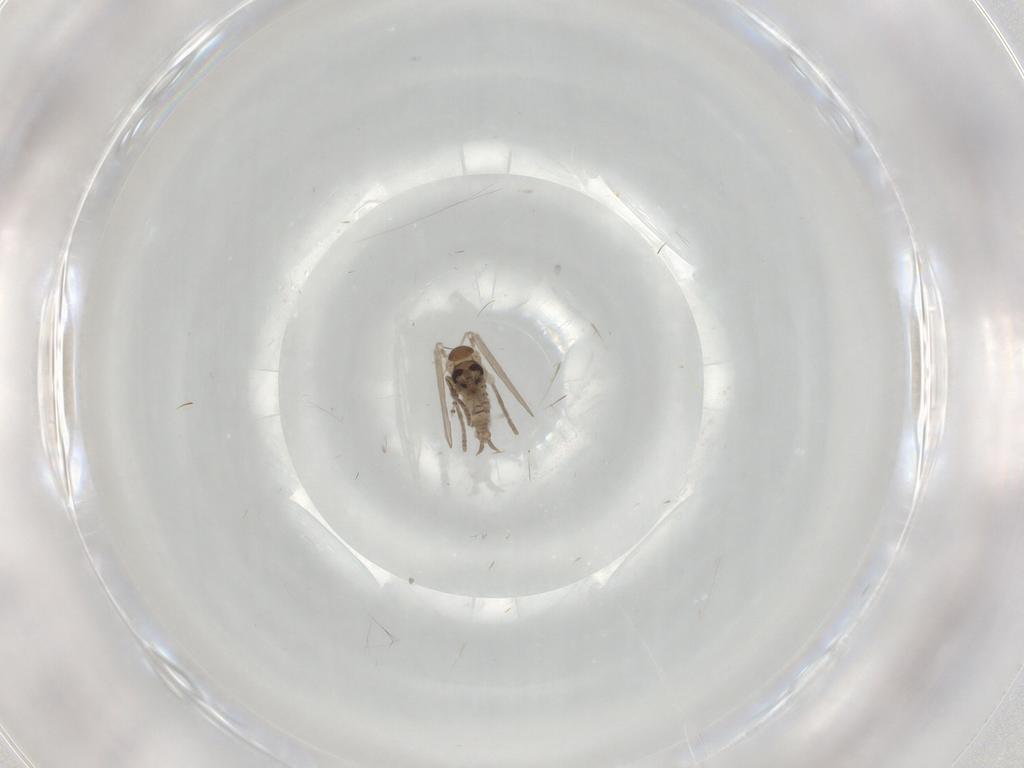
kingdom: Animalia
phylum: Arthropoda
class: Insecta
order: Diptera
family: Psychodidae
